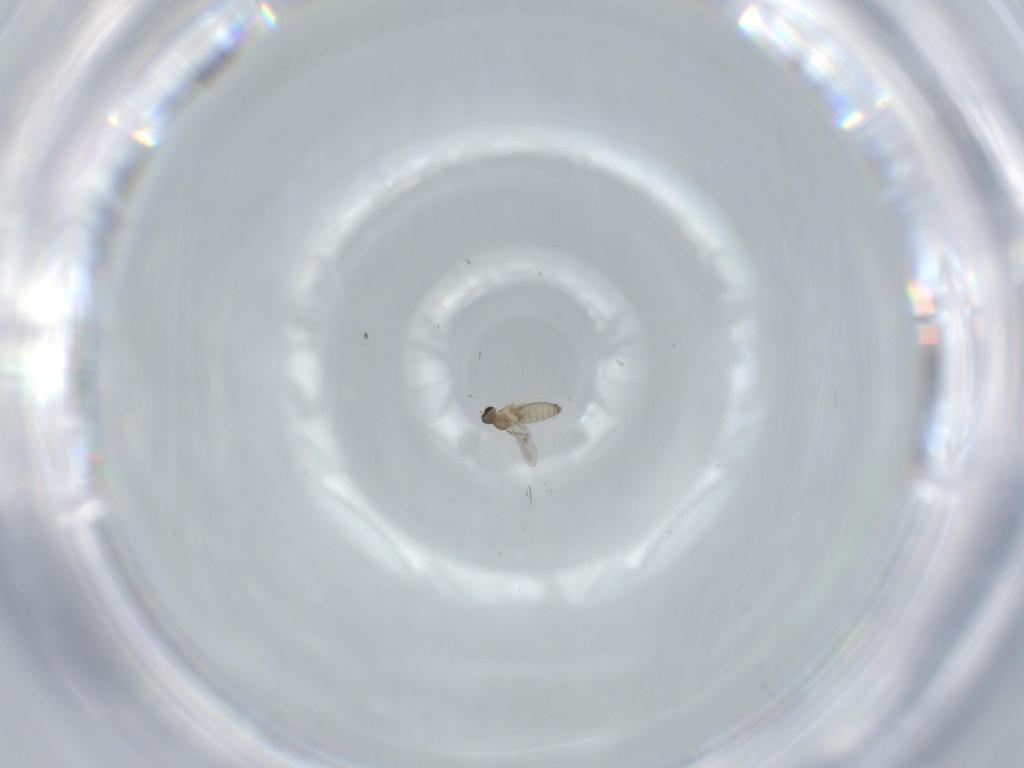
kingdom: Animalia
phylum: Arthropoda
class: Insecta
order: Diptera
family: Cecidomyiidae
